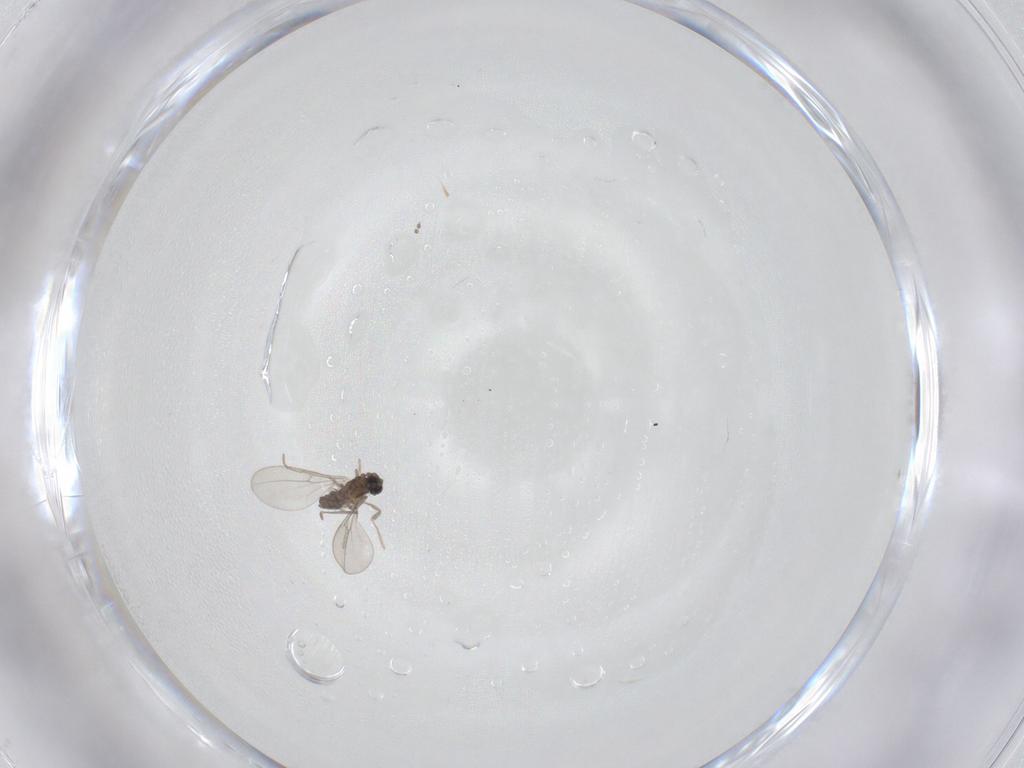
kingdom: Animalia
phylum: Arthropoda
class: Insecta
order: Diptera
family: Cecidomyiidae
